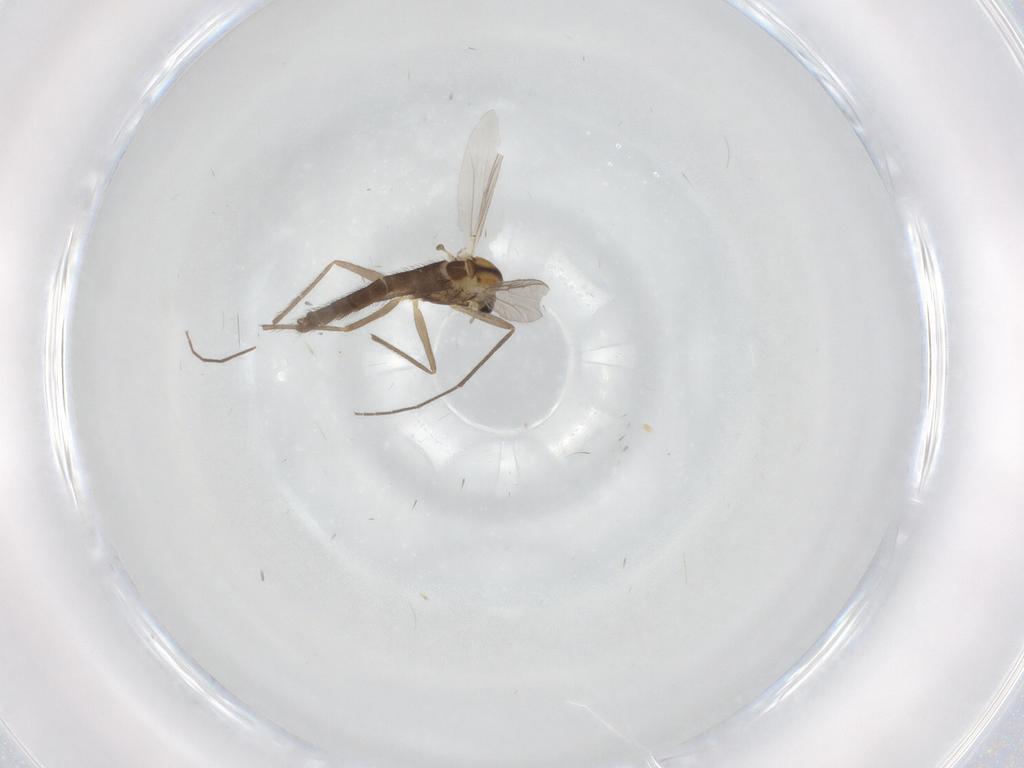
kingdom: Animalia
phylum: Arthropoda
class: Insecta
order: Diptera
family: Chironomidae
